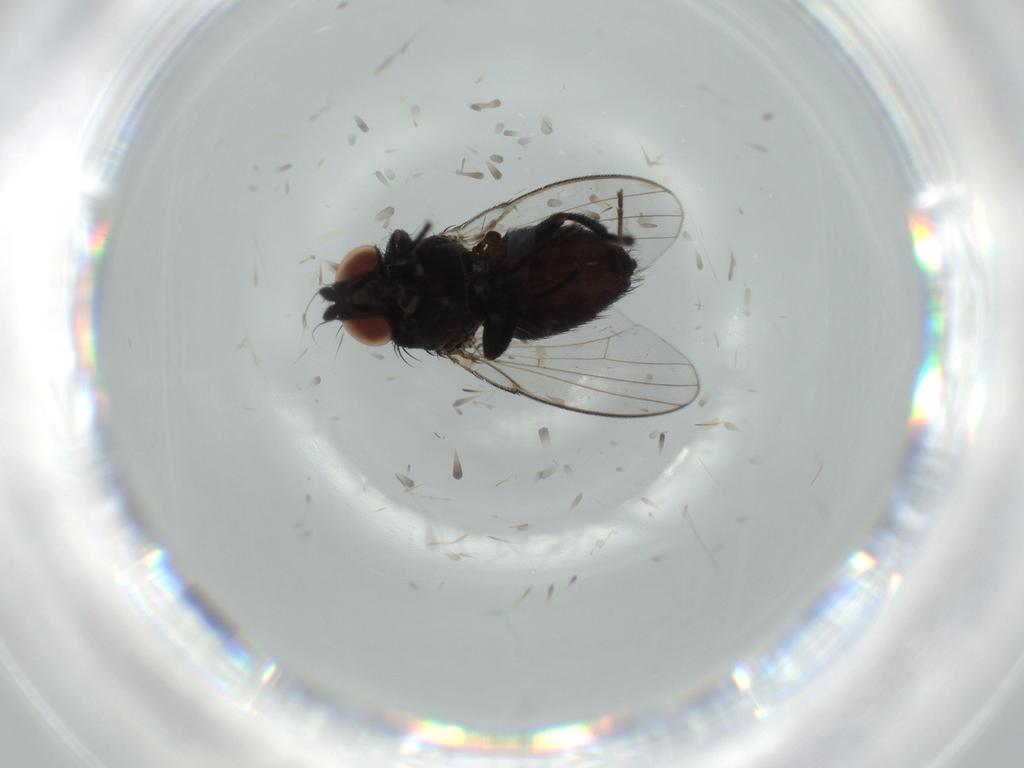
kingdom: Animalia
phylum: Arthropoda
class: Insecta
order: Diptera
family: Milichiidae
